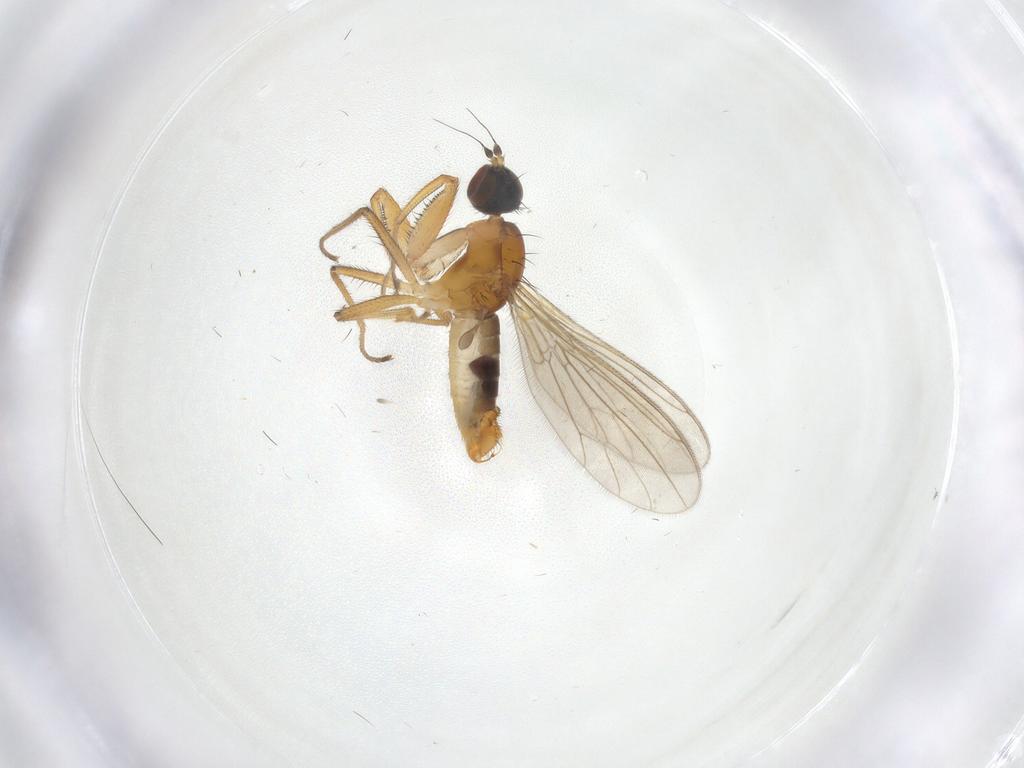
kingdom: Animalia
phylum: Arthropoda
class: Insecta
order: Diptera
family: Empididae
